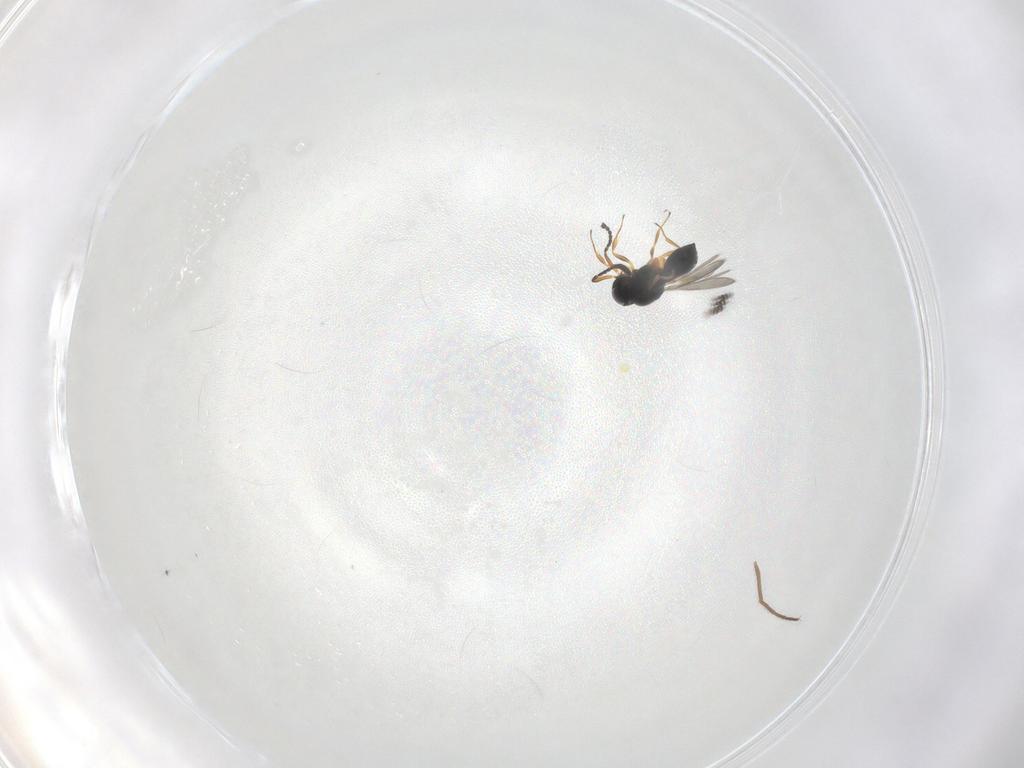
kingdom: Animalia
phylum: Arthropoda
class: Insecta
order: Hymenoptera
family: Scelionidae
